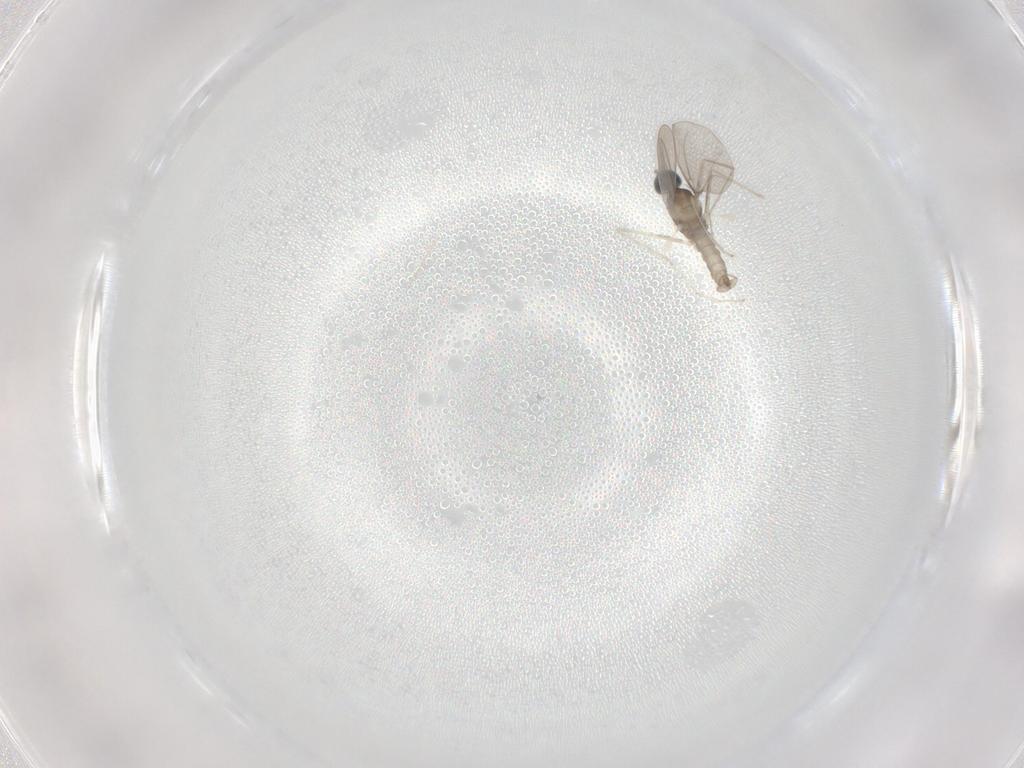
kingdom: Animalia
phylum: Arthropoda
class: Insecta
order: Diptera
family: Cecidomyiidae
